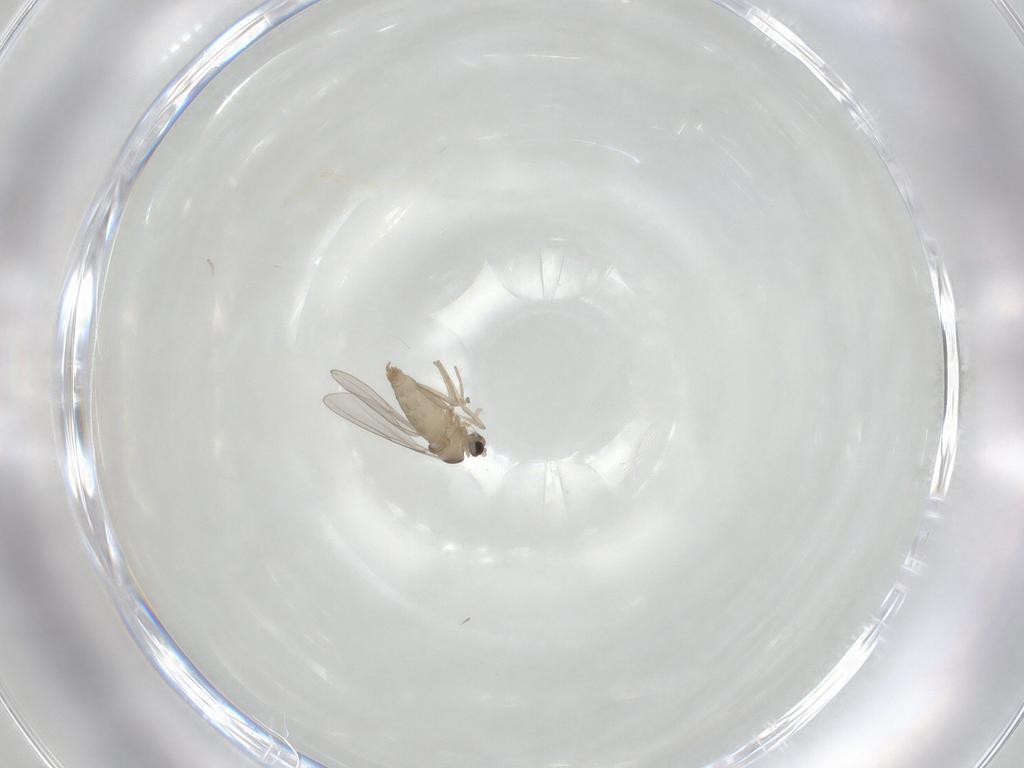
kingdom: Animalia
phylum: Arthropoda
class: Insecta
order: Diptera
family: Cecidomyiidae
